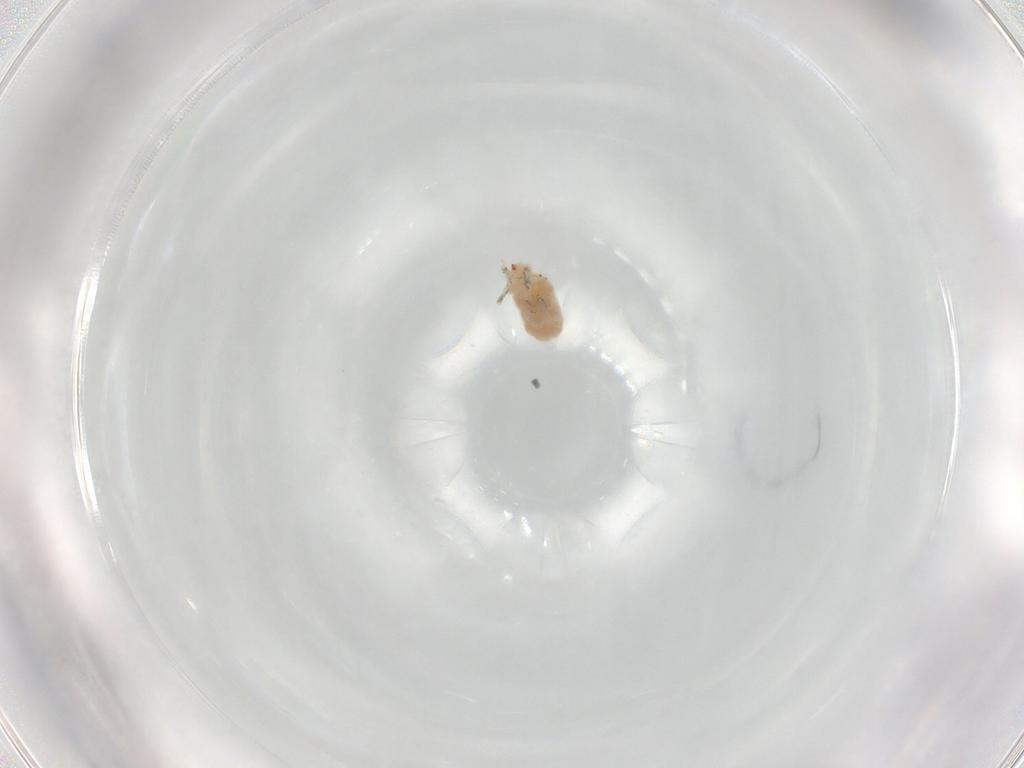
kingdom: Animalia
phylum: Arthropoda
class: Arachnida
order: Trombidiformes
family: Bdellidae
